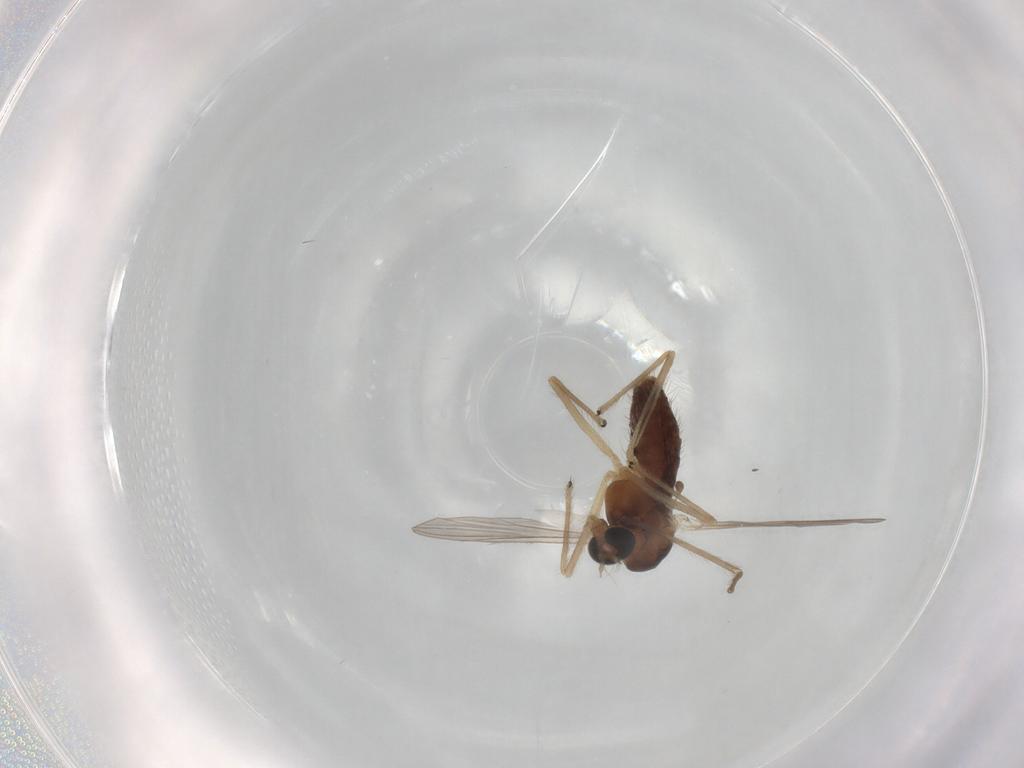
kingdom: Animalia
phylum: Arthropoda
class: Insecta
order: Diptera
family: Chironomidae
